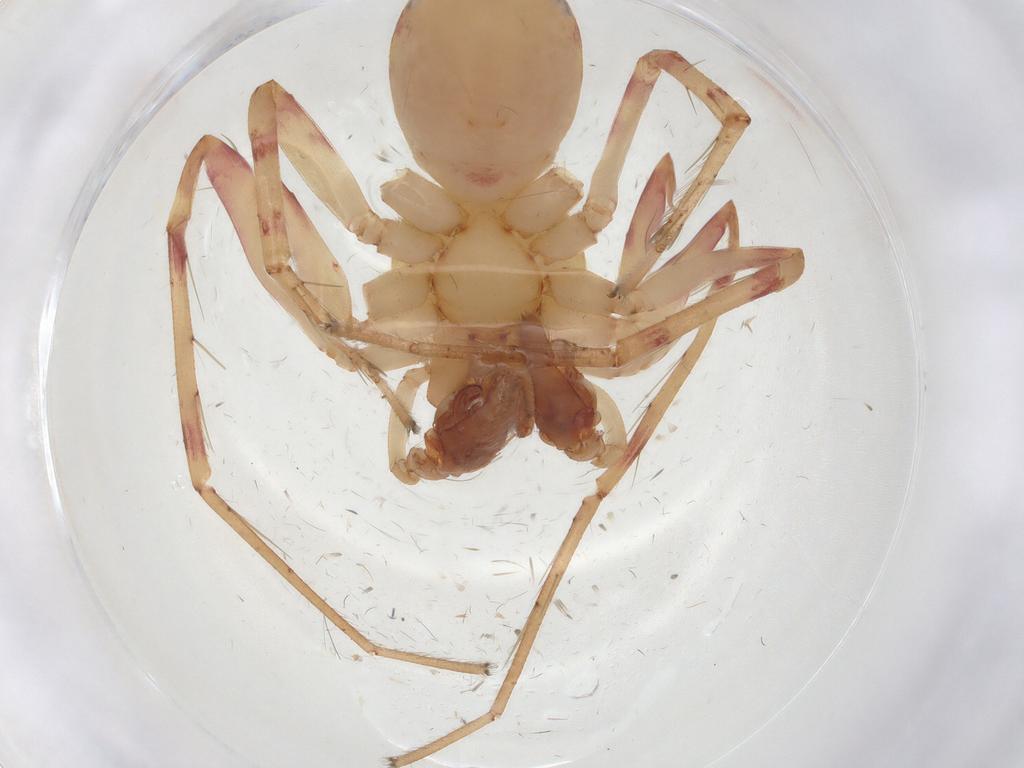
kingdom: Animalia
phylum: Arthropoda
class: Arachnida
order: Araneae
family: Anyphaenidae
